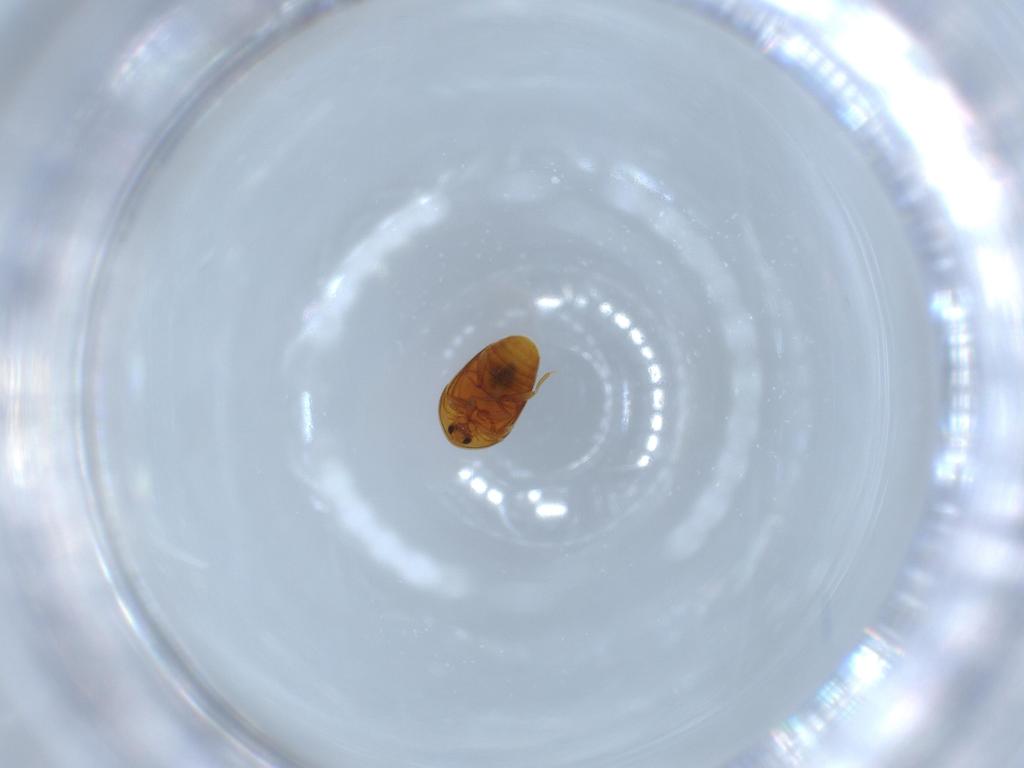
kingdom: Animalia
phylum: Arthropoda
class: Insecta
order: Coleoptera
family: Corylophidae
